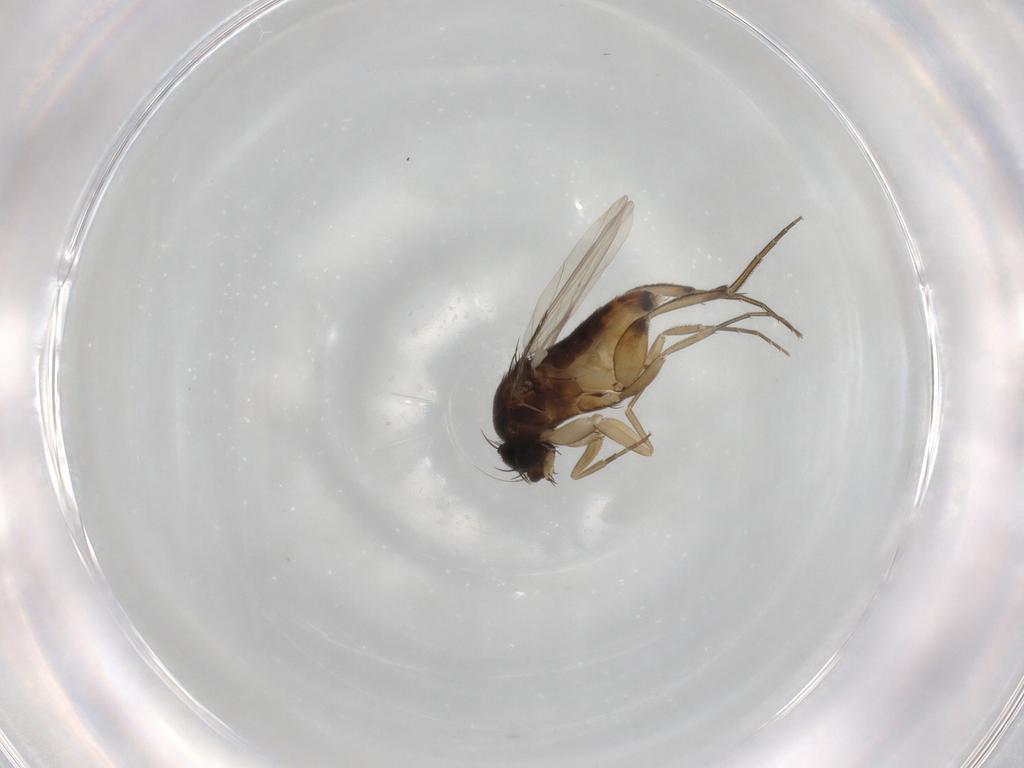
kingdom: Animalia
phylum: Arthropoda
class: Insecta
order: Diptera
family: Phoridae
